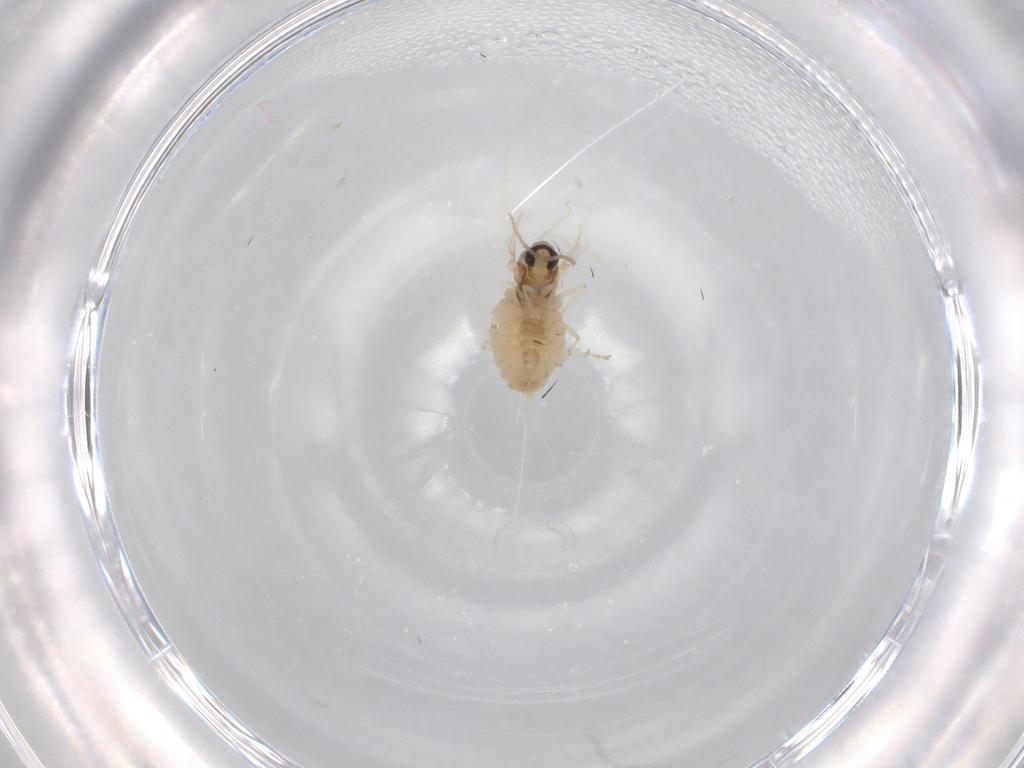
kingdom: Animalia
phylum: Arthropoda
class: Insecta
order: Diptera
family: Cecidomyiidae
